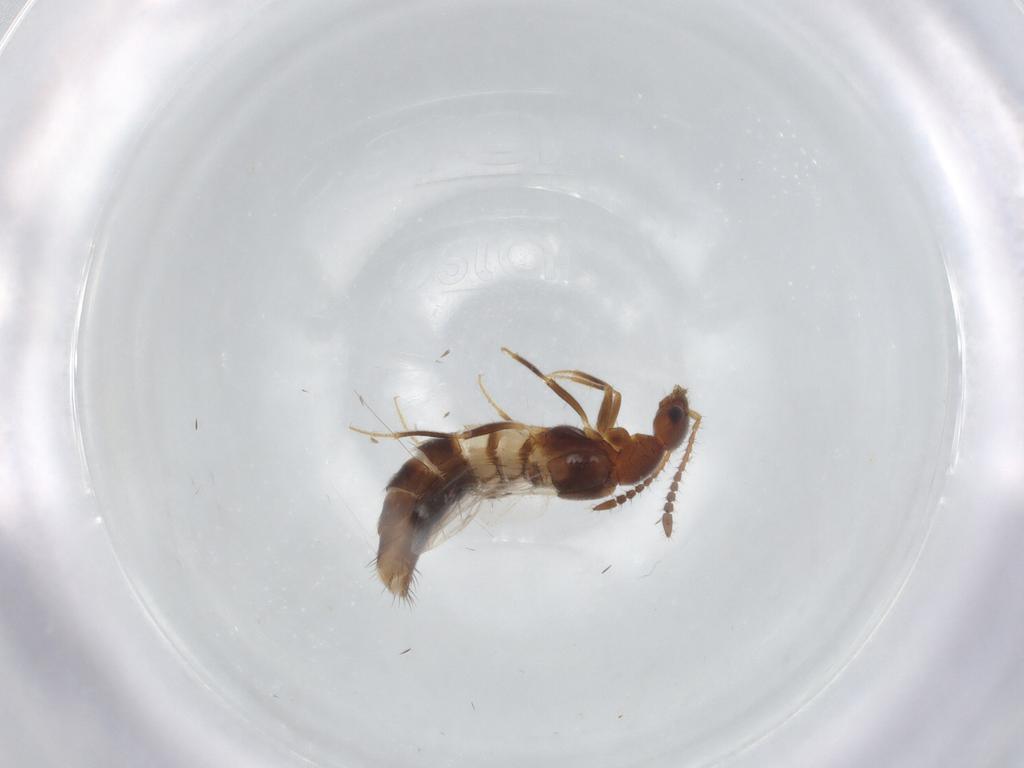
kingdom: Animalia
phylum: Arthropoda
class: Insecta
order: Coleoptera
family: Staphylinidae
